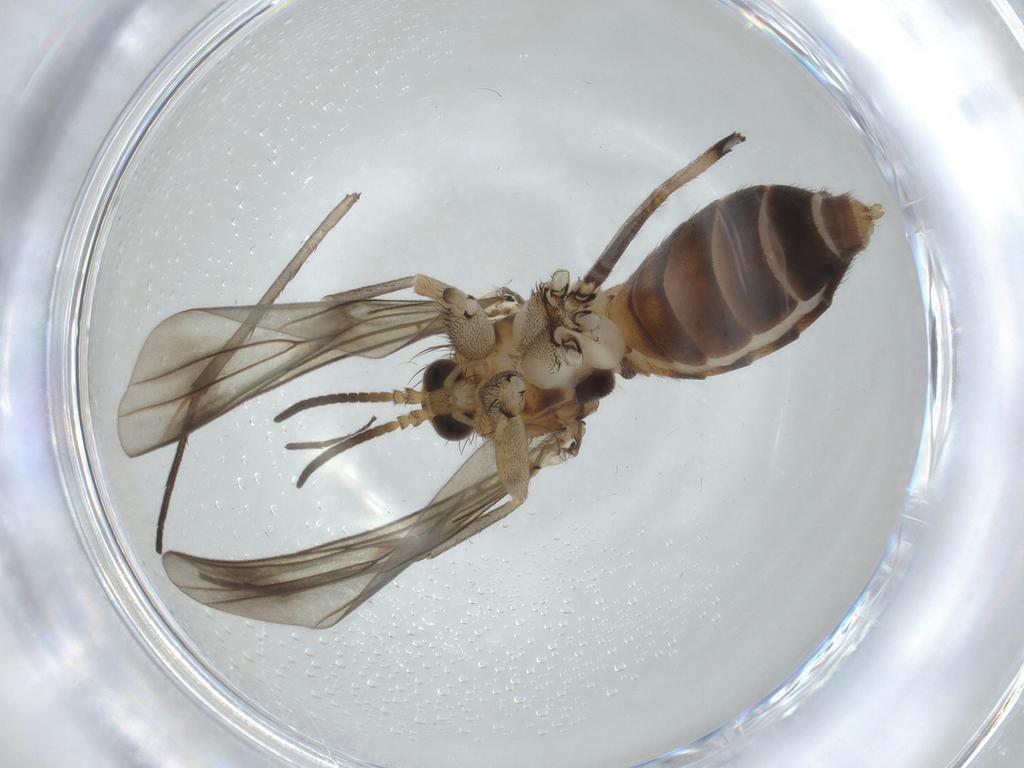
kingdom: Animalia
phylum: Arthropoda
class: Insecta
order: Diptera
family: Mycetophilidae
